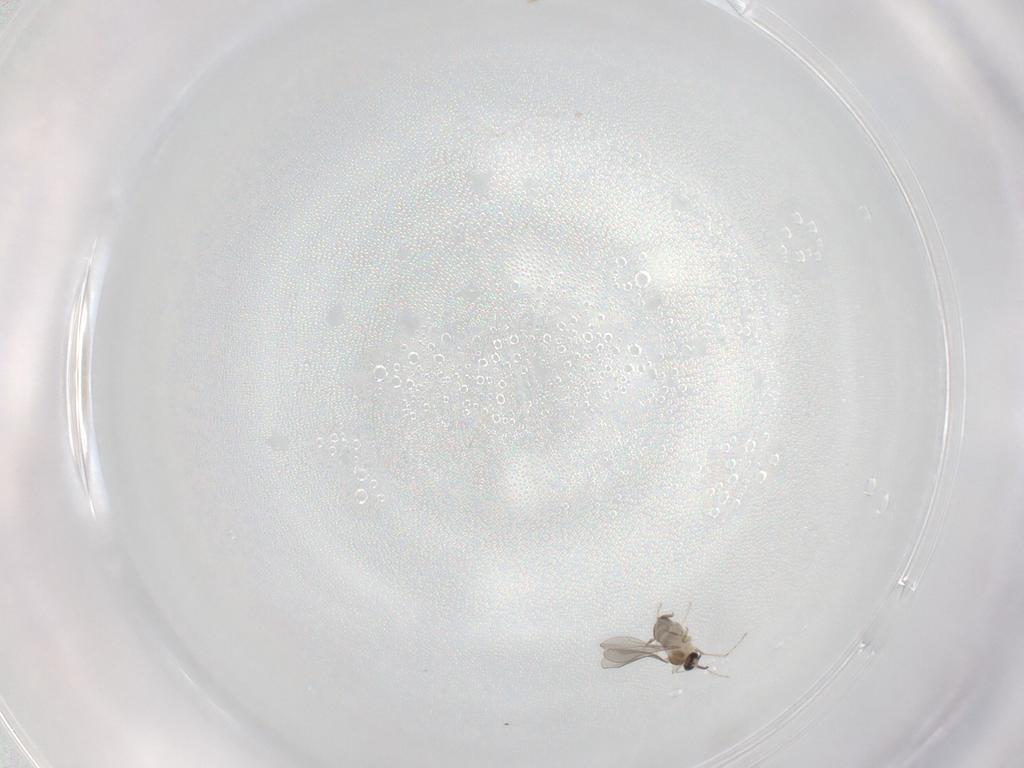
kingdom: Animalia
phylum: Arthropoda
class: Insecta
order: Diptera
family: Cecidomyiidae
